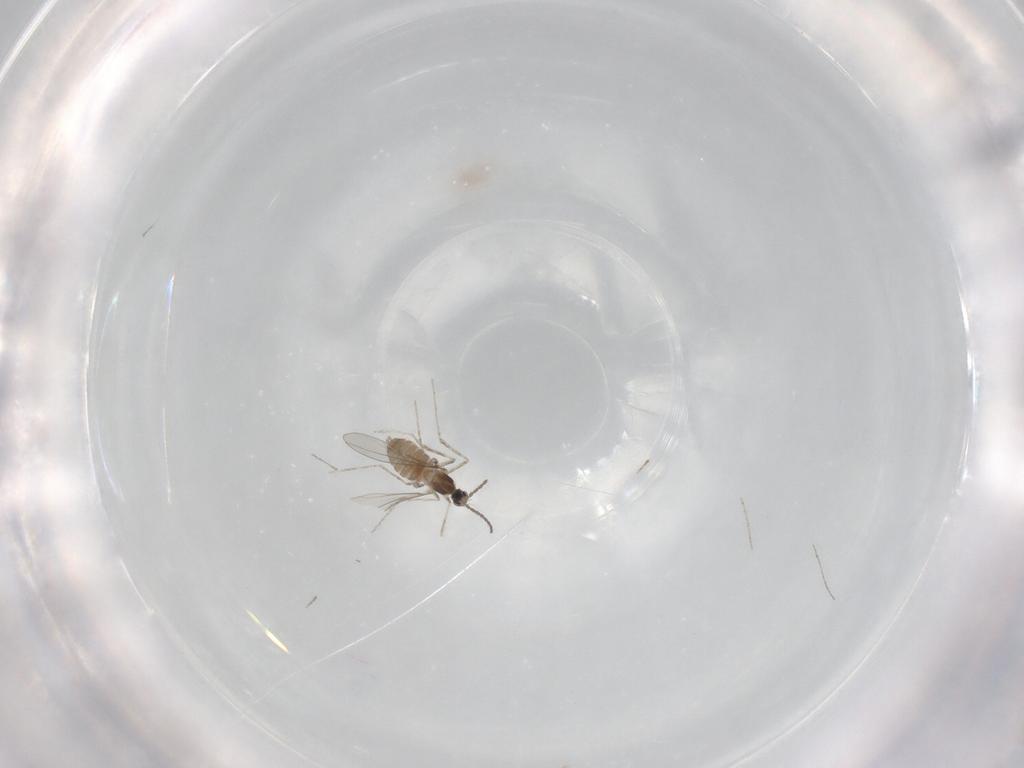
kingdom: Animalia
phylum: Arthropoda
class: Insecta
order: Diptera
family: Cecidomyiidae
